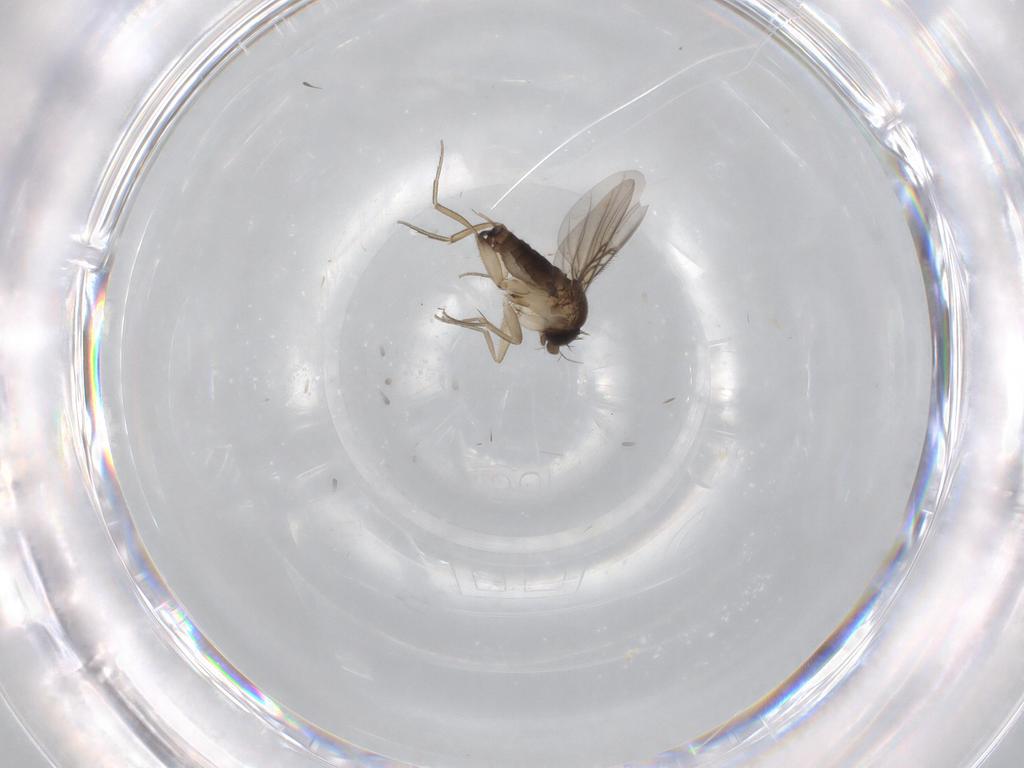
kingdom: Animalia
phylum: Arthropoda
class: Insecta
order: Diptera
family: Phoridae
